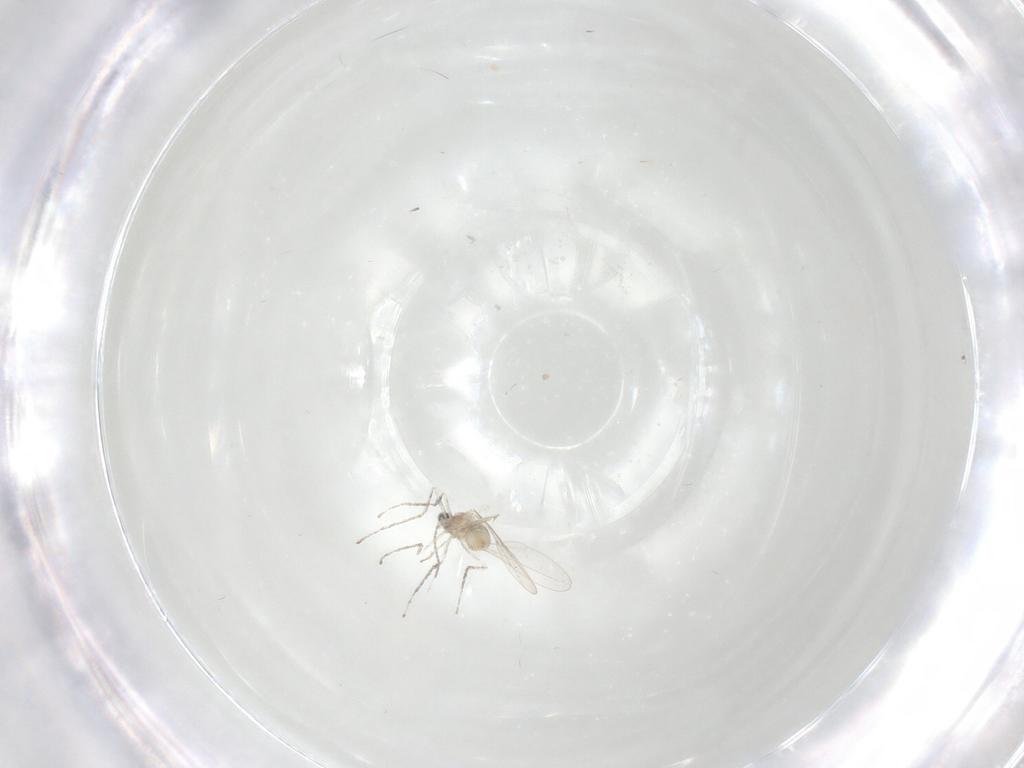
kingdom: Animalia
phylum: Arthropoda
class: Insecta
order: Diptera
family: Cecidomyiidae
